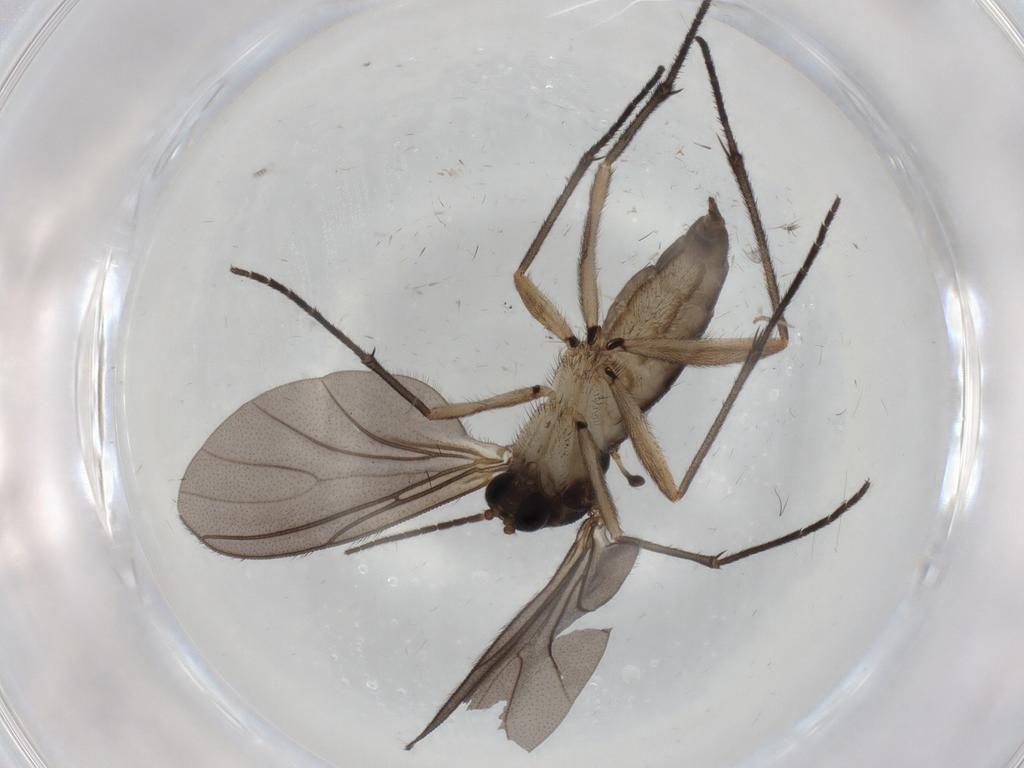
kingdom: Animalia
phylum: Arthropoda
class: Insecta
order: Diptera
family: Sciaridae
